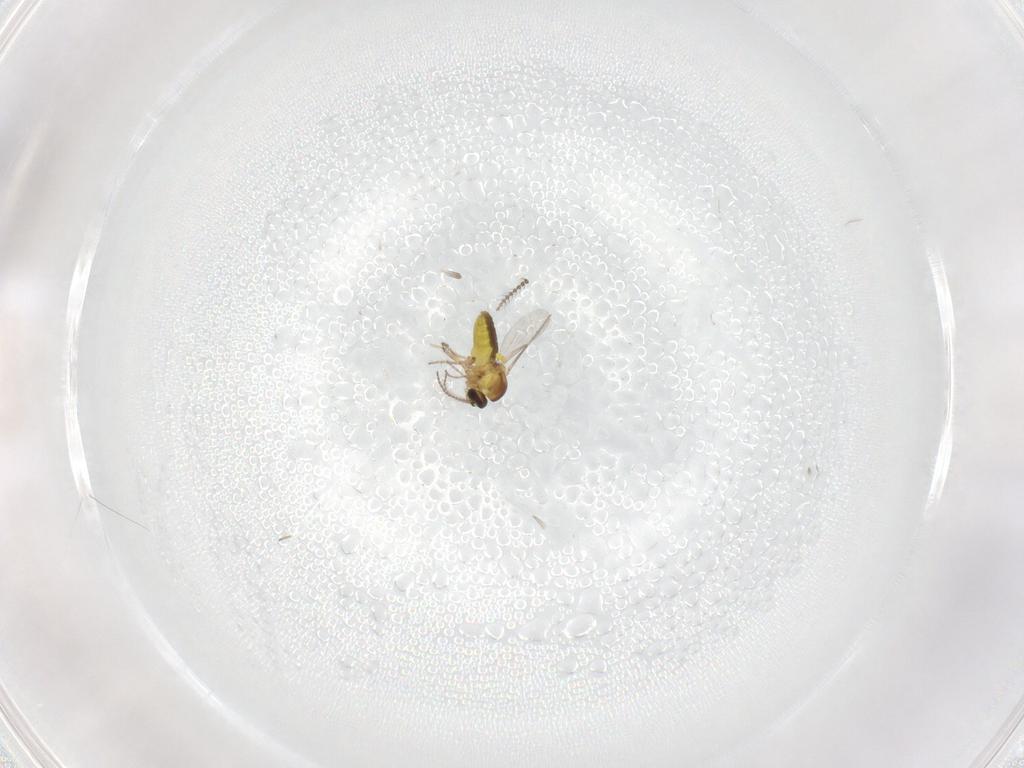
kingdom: Animalia
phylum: Arthropoda
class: Insecta
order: Diptera
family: Ceratopogonidae
